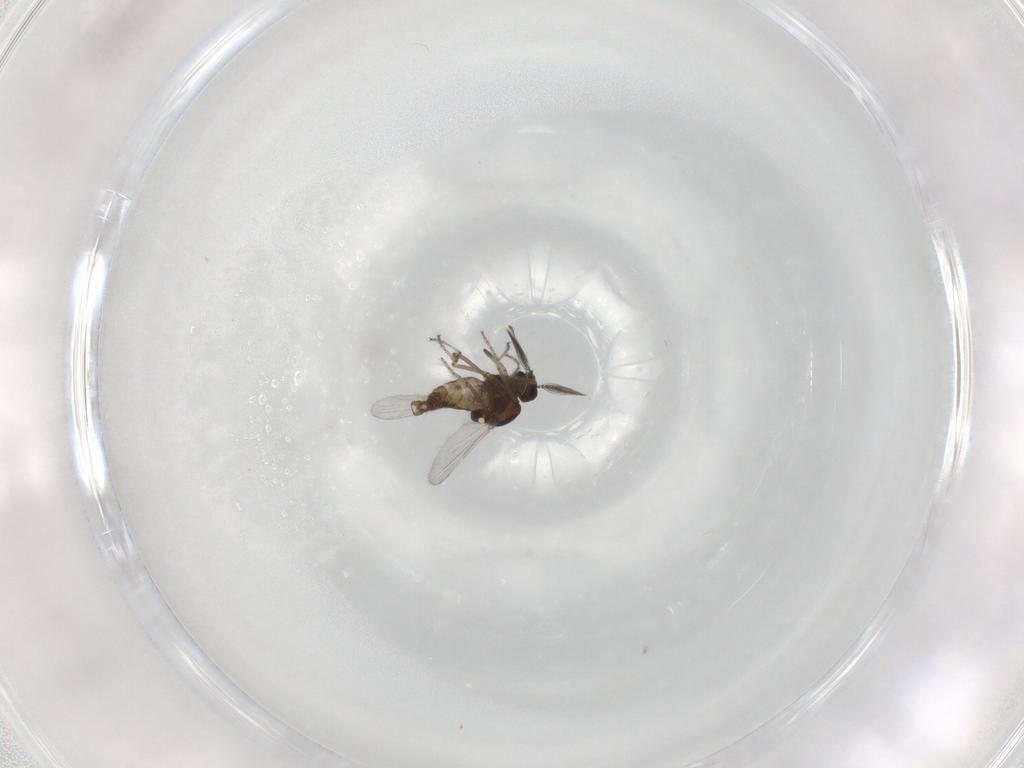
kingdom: Animalia
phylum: Arthropoda
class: Insecta
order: Diptera
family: Ceratopogonidae
